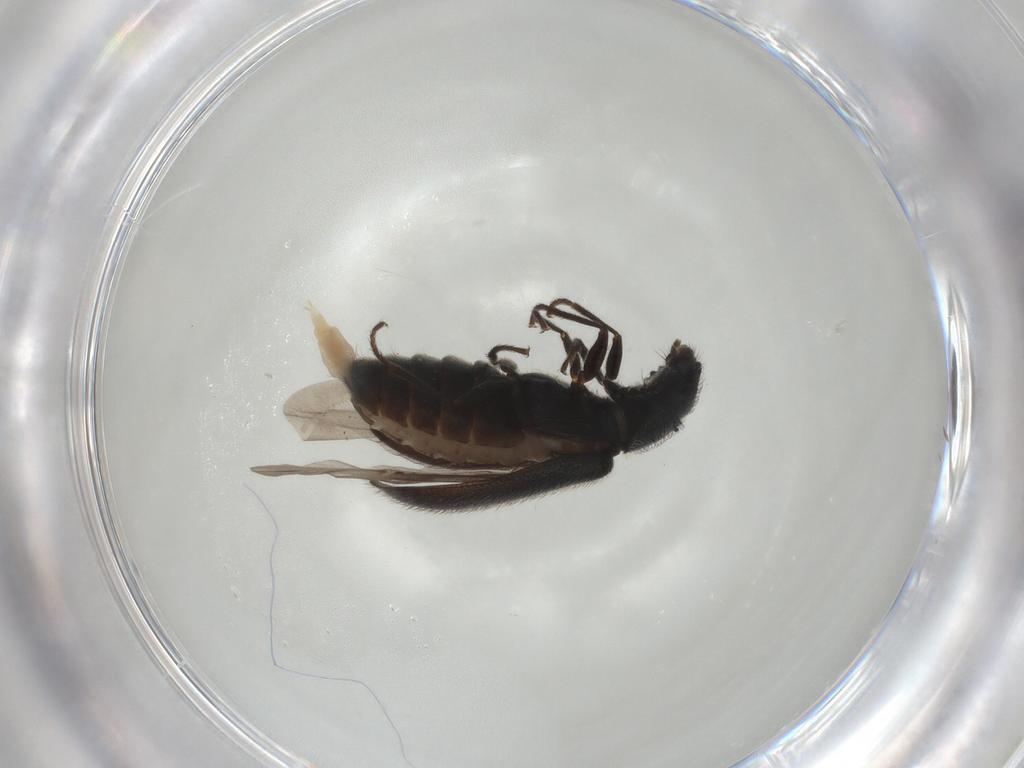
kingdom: Animalia
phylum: Arthropoda
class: Insecta
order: Coleoptera
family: Melyridae
